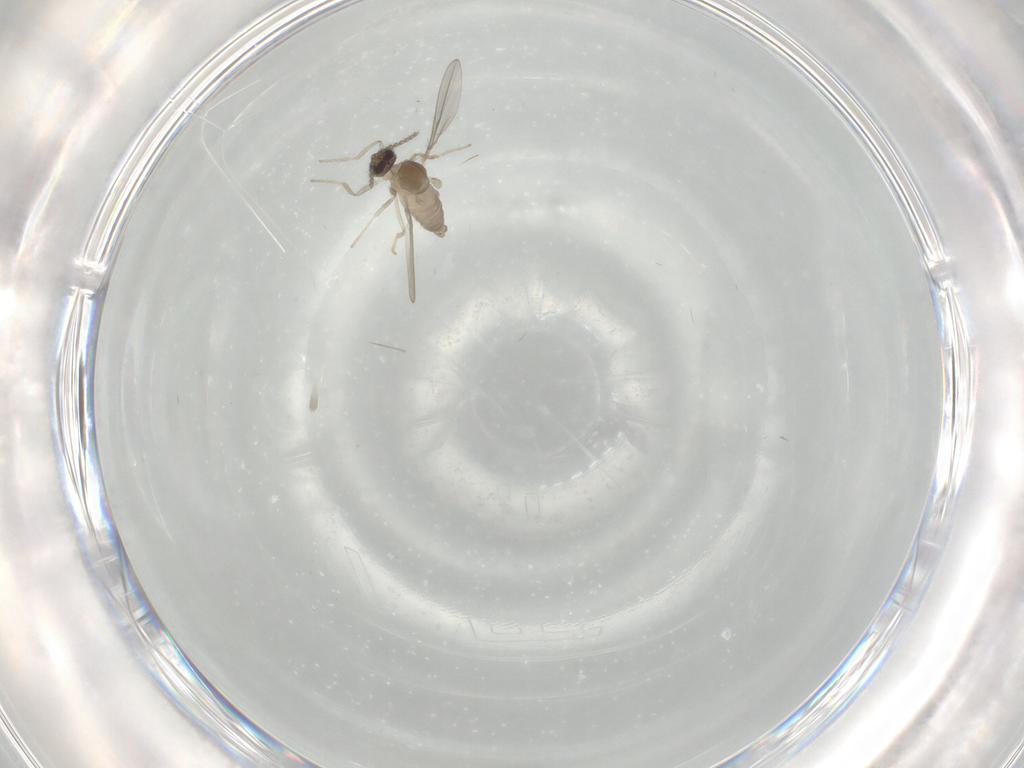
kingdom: Animalia
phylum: Arthropoda
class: Insecta
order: Diptera
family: Cecidomyiidae
